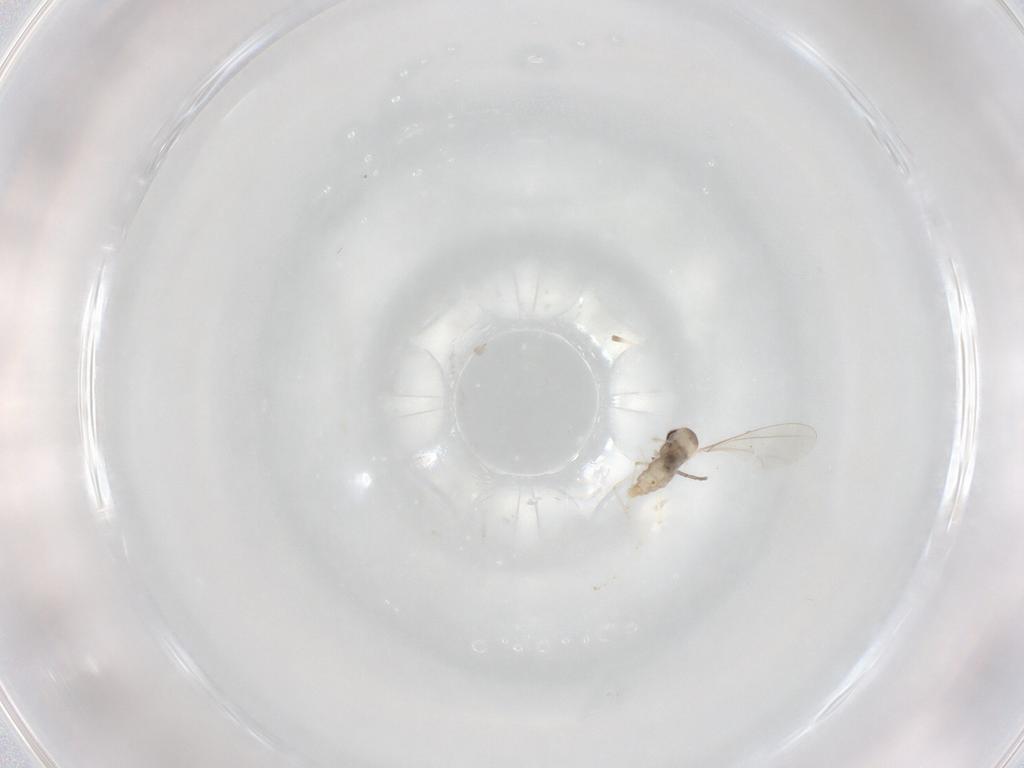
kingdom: Animalia
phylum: Arthropoda
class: Insecta
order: Diptera
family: Cecidomyiidae
